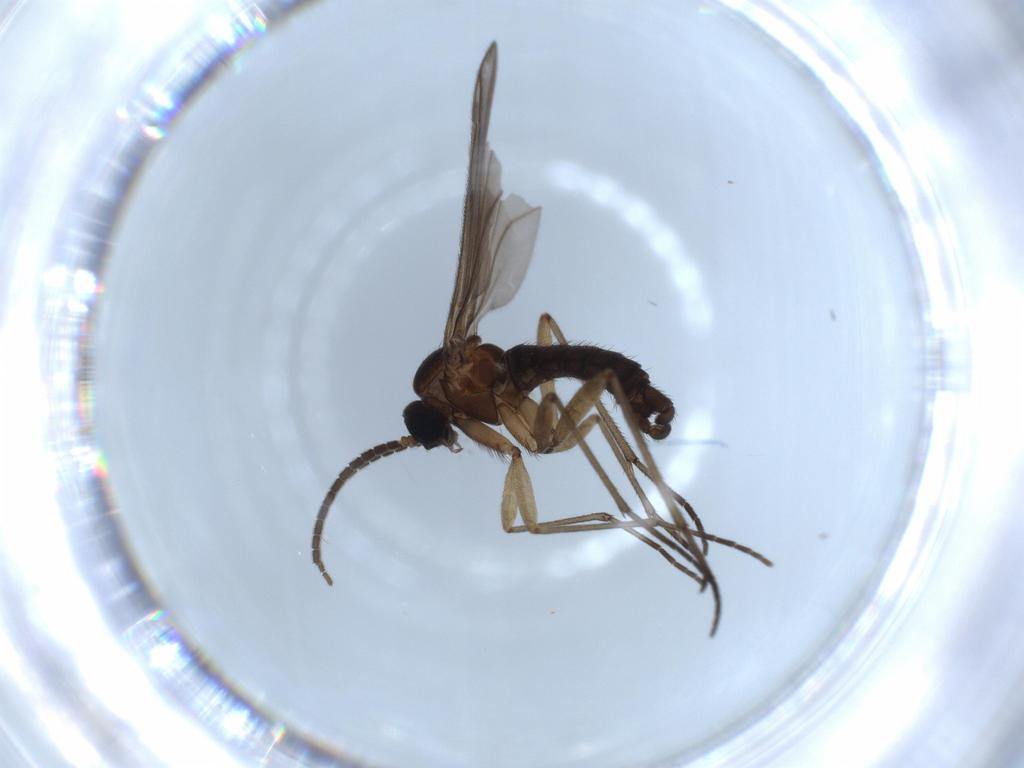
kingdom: Animalia
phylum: Arthropoda
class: Insecta
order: Diptera
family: Sciaridae
